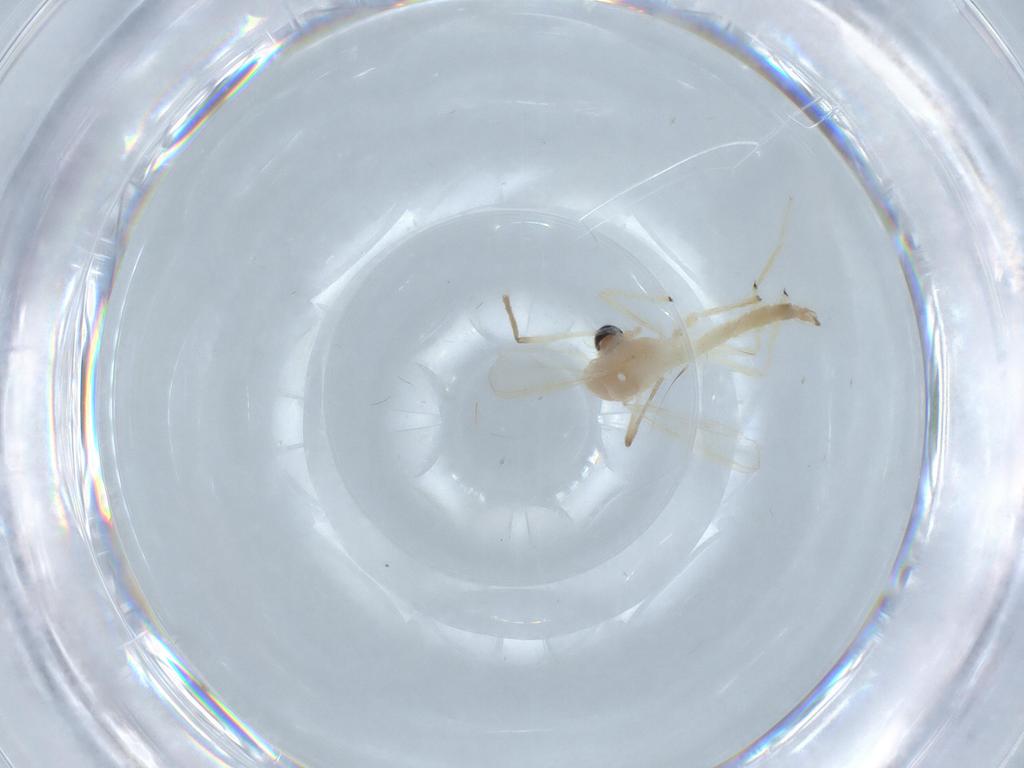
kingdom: Animalia
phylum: Arthropoda
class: Insecta
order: Diptera
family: Chironomidae
